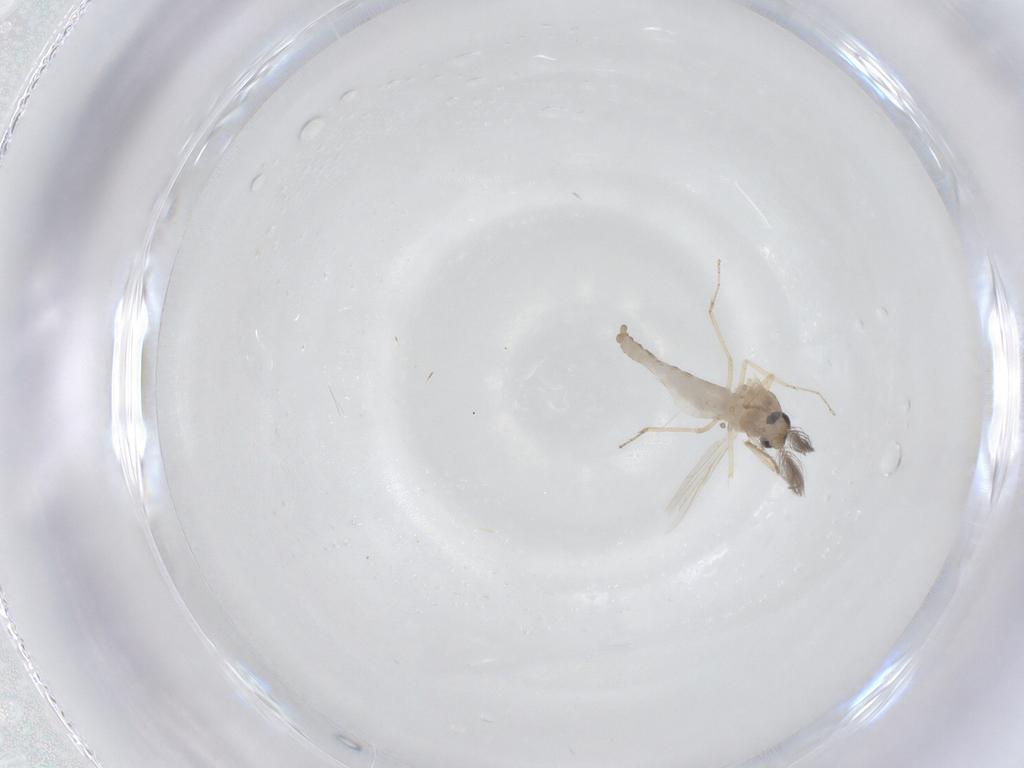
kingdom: Animalia
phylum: Arthropoda
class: Insecta
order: Diptera
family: Ceratopogonidae
